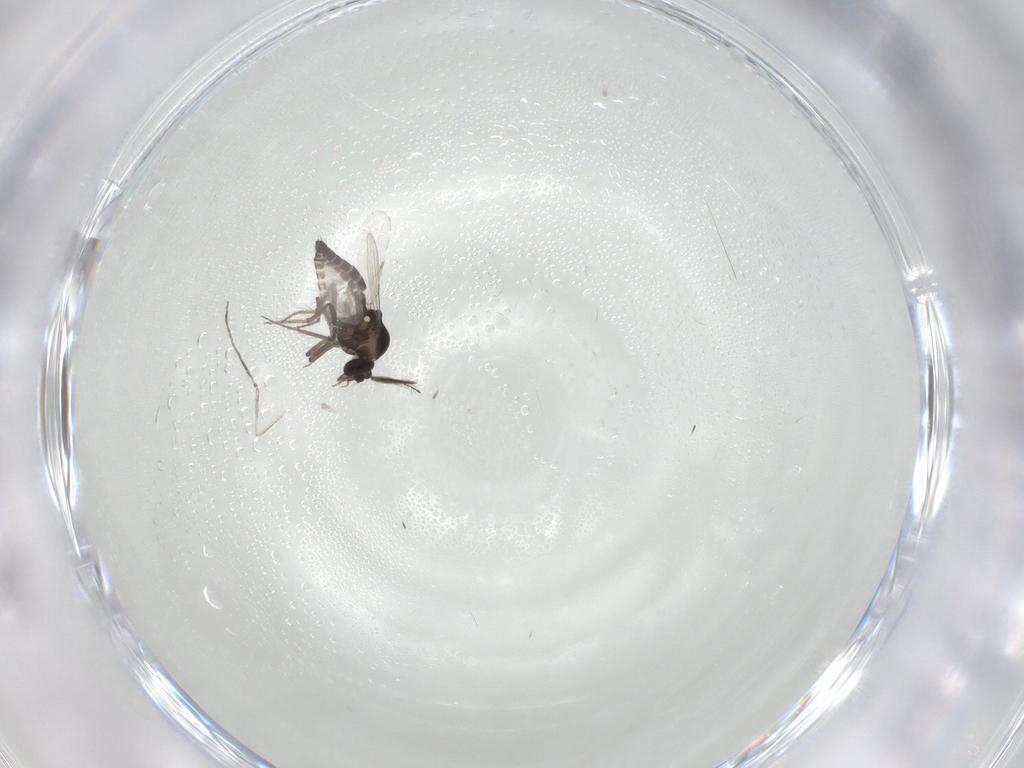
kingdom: Animalia
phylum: Arthropoda
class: Insecta
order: Diptera
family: Ceratopogonidae
